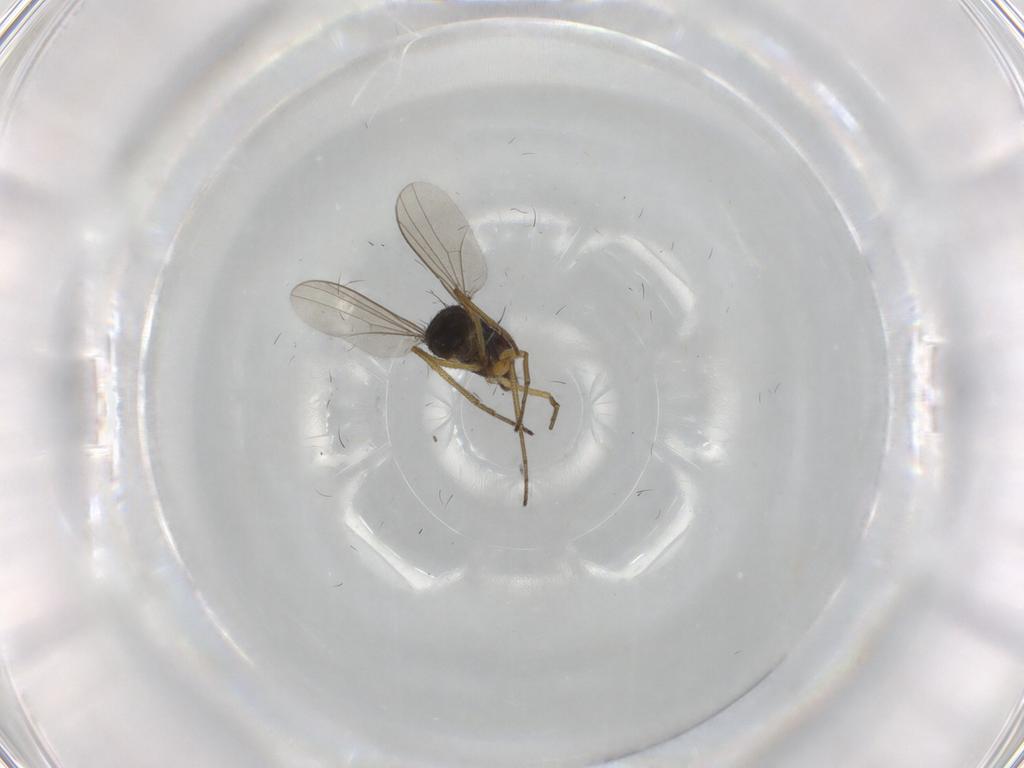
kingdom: Animalia
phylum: Arthropoda
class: Insecta
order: Diptera
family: Dolichopodidae
